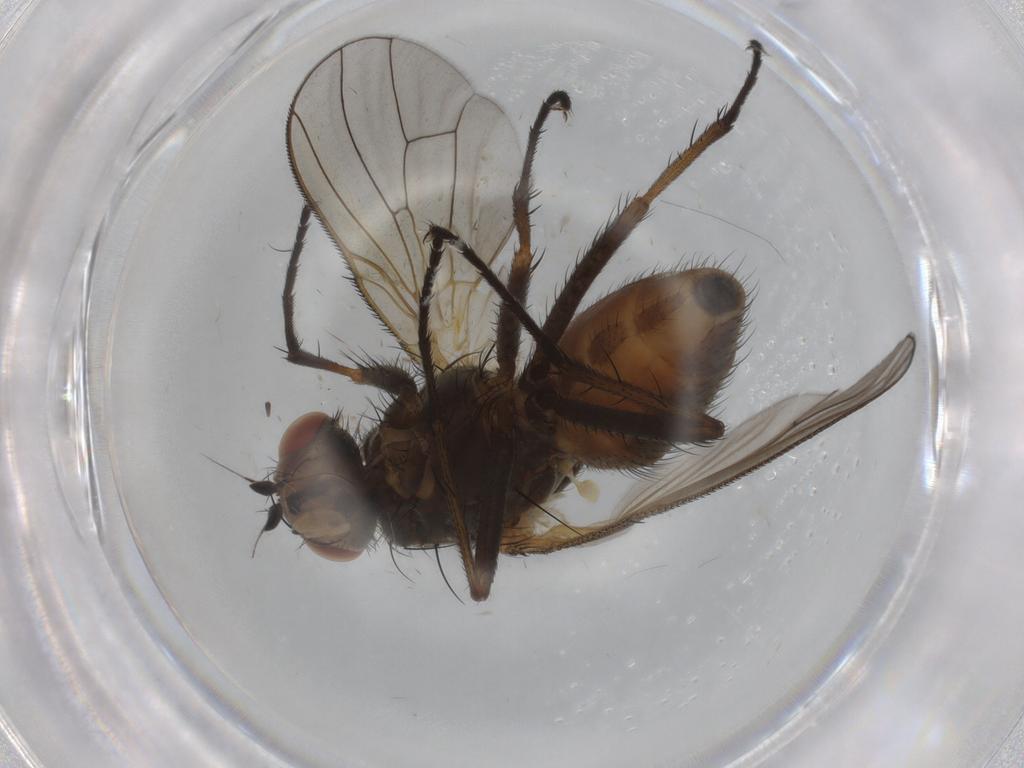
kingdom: Animalia
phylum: Arthropoda
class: Insecta
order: Diptera
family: Anthomyiidae
